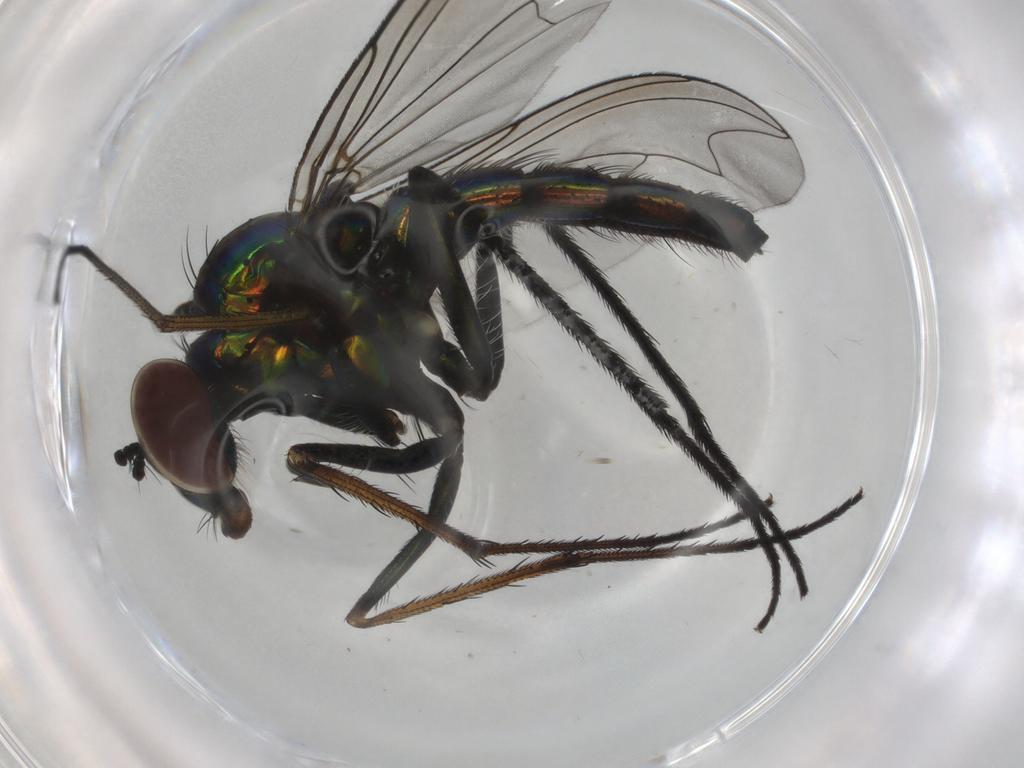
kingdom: Animalia
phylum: Arthropoda
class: Insecta
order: Diptera
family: Dolichopodidae
